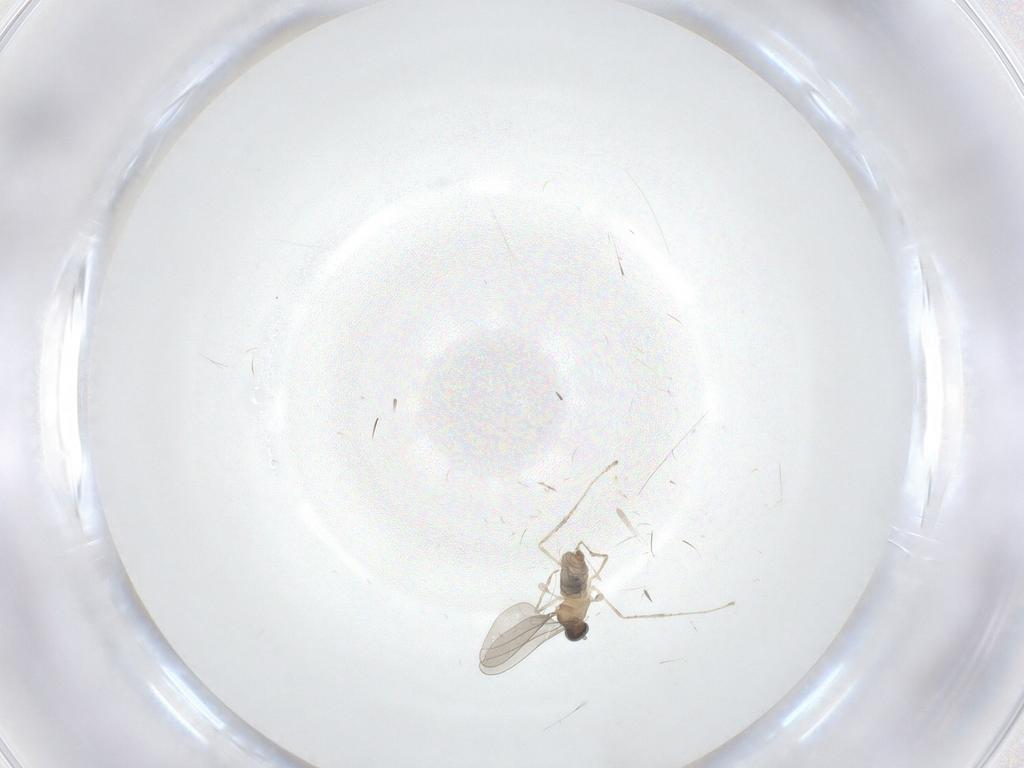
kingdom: Animalia
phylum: Arthropoda
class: Insecta
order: Diptera
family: Cecidomyiidae
